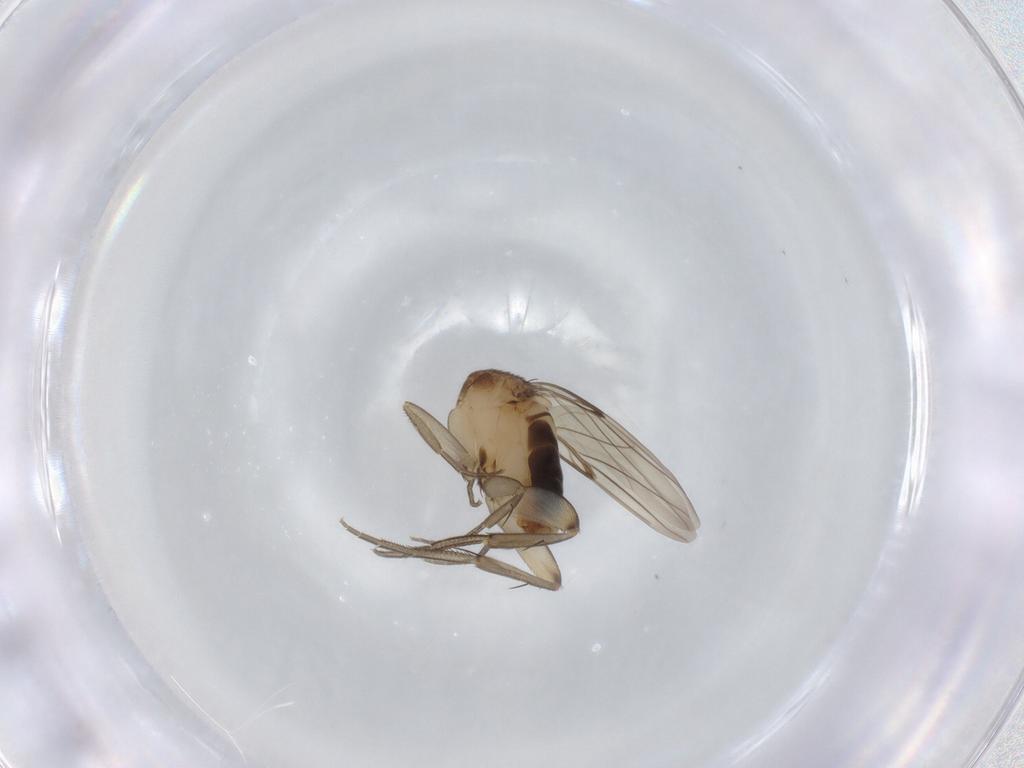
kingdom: Animalia
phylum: Arthropoda
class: Insecta
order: Diptera
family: Phoridae
